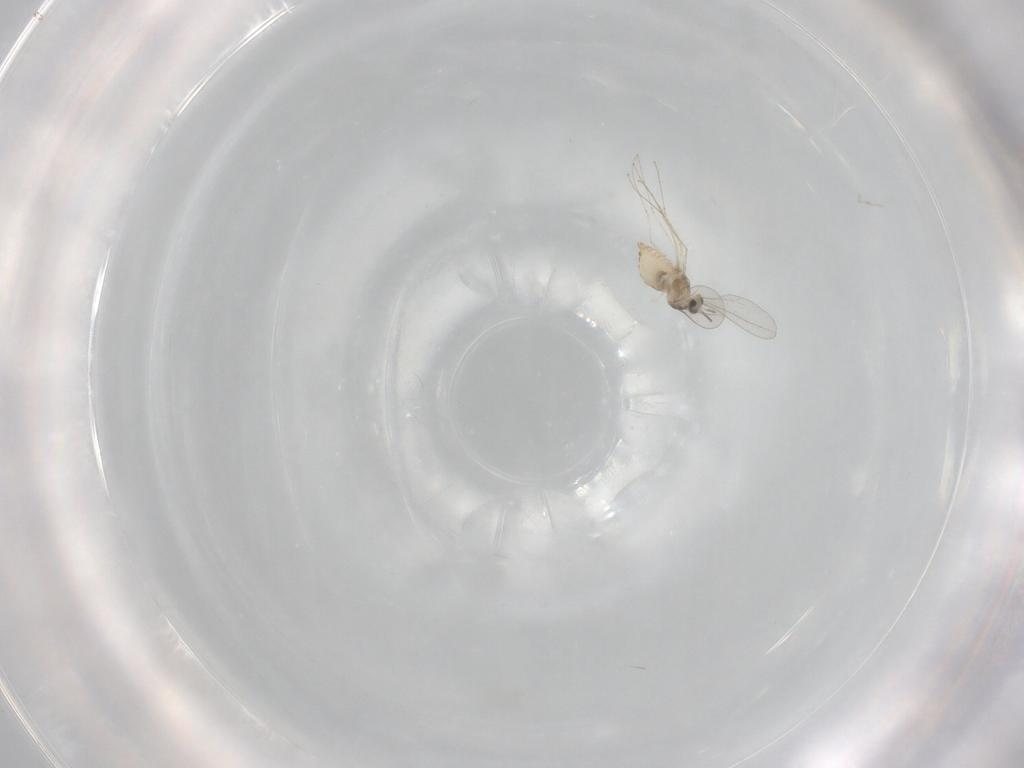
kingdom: Animalia
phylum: Arthropoda
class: Insecta
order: Diptera
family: Cecidomyiidae
